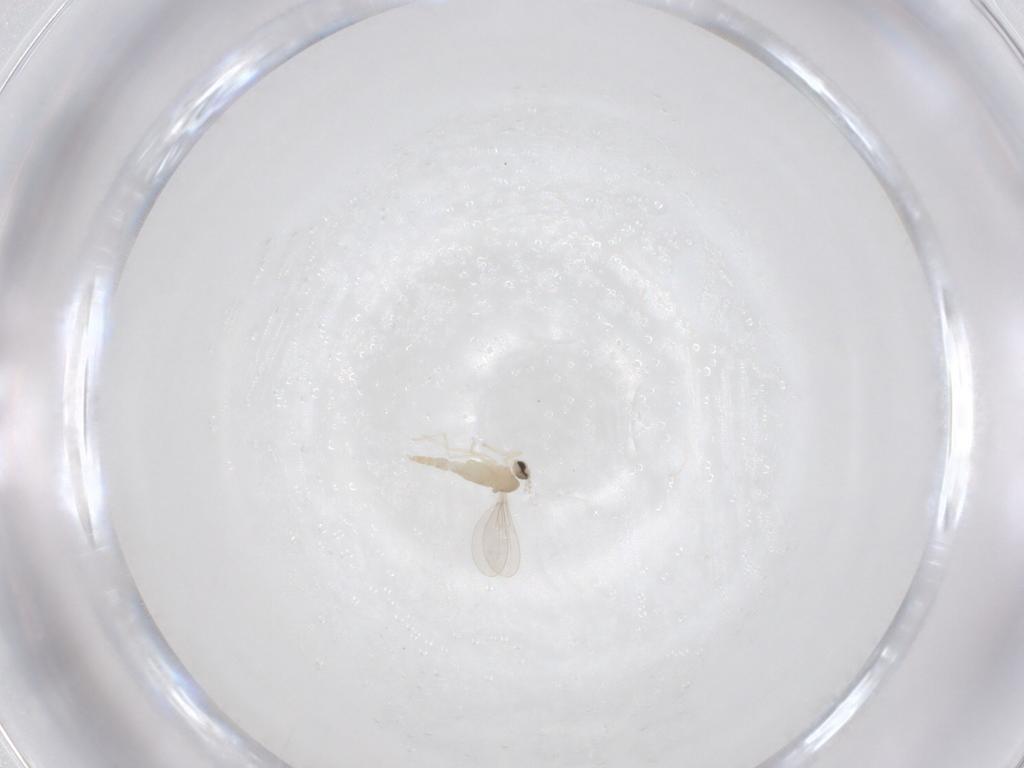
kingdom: Animalia
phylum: Arthropoda
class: Insecta
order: Diptera
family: Cecidomyiidae
